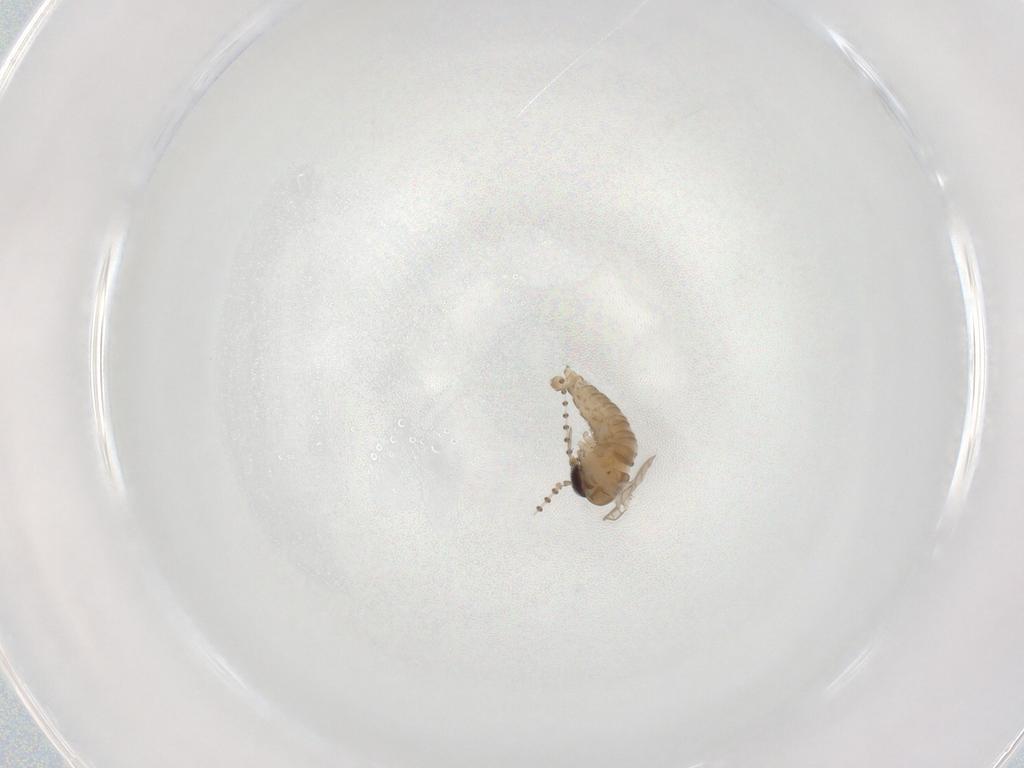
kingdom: Animalia
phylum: Arthropoda
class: Insecta
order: Diptera
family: Psychodidae
